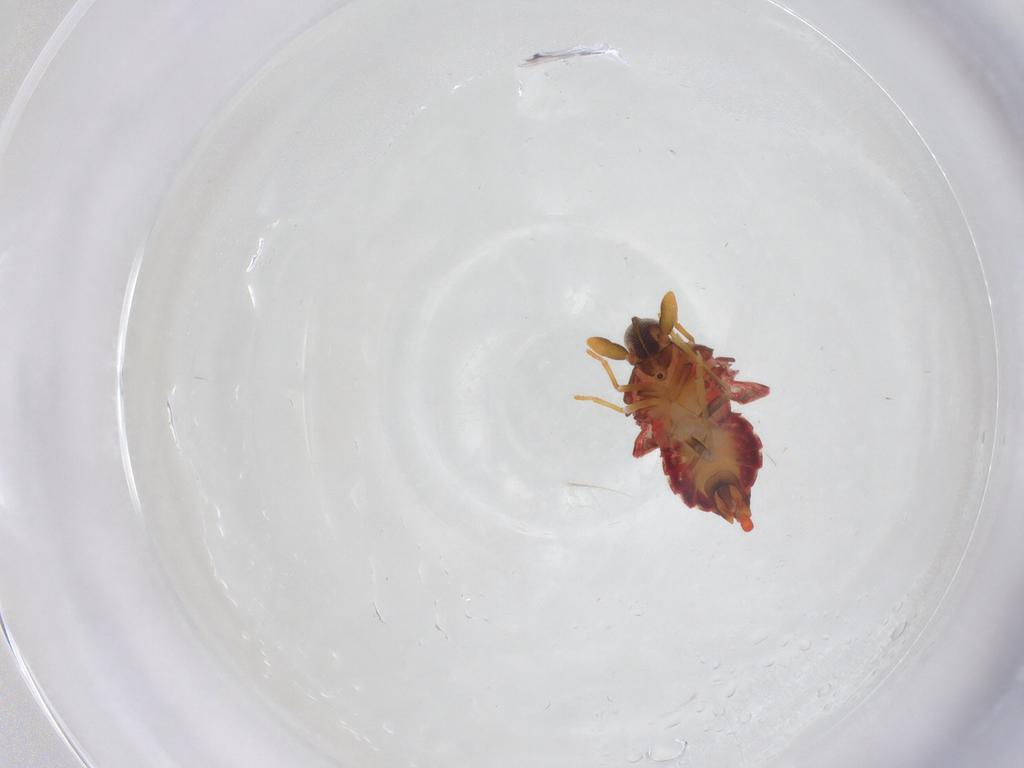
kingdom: Animalia
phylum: Arthropoda
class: Insecta
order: Hemiptera
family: Derbidae
